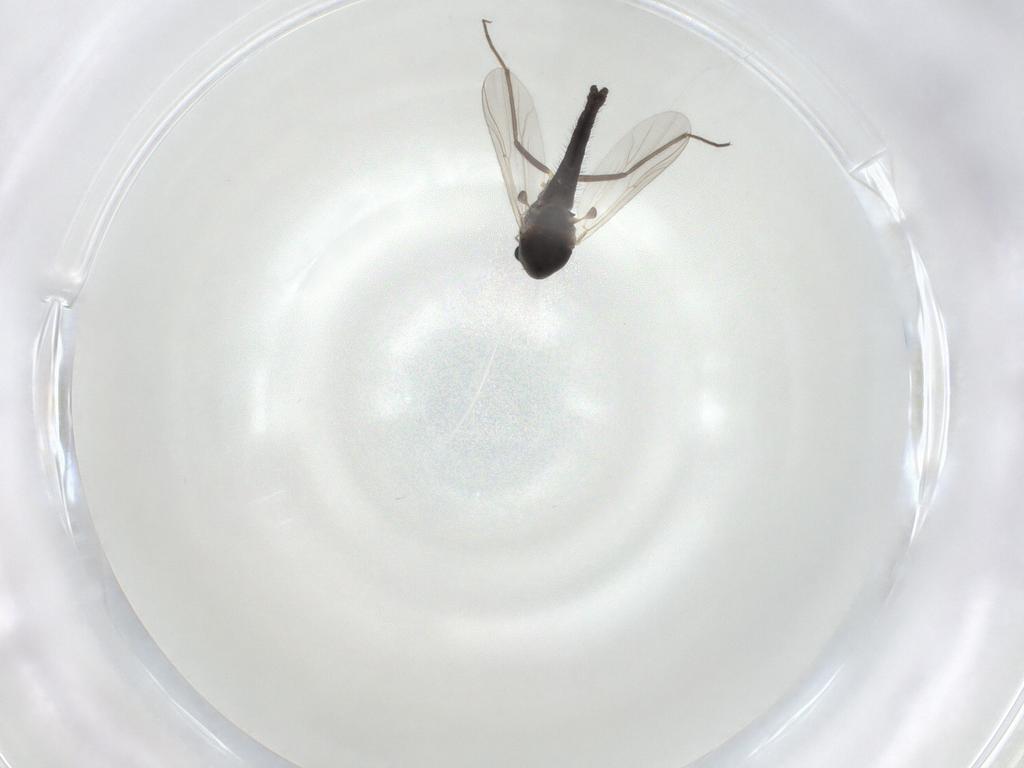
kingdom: Animalia
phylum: Arthropoda
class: Insecta
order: Diptera
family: Chironomidae
